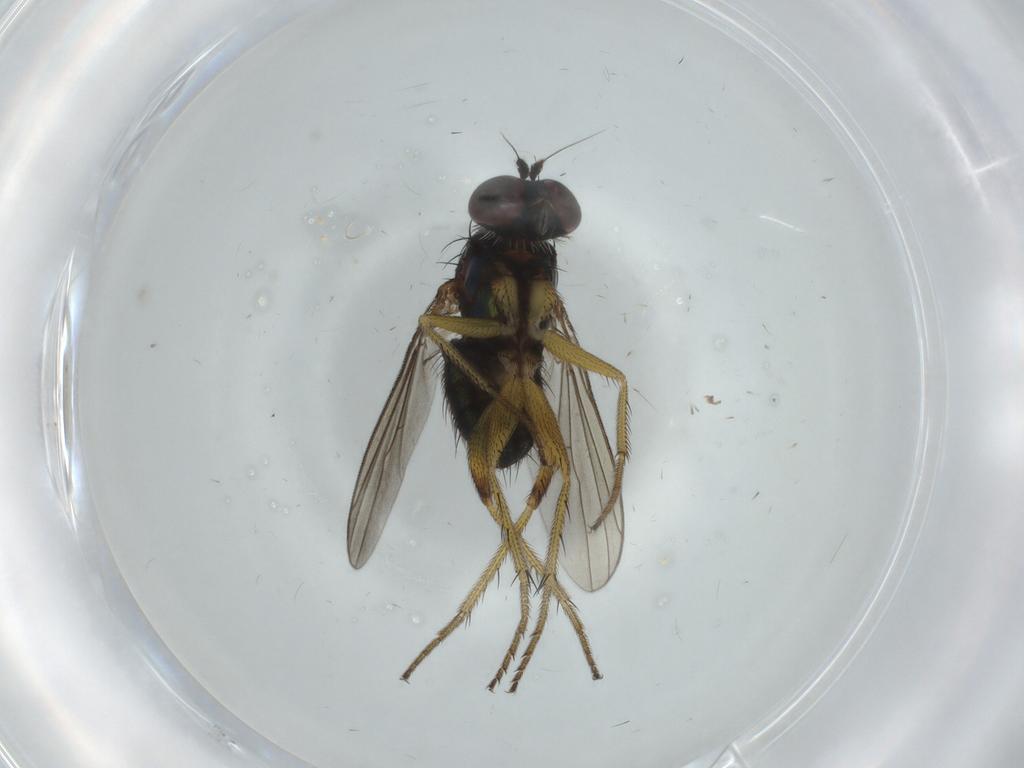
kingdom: Animalia
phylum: Arthropoda
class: Insecta
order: Diptera
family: Dolichopodidae
